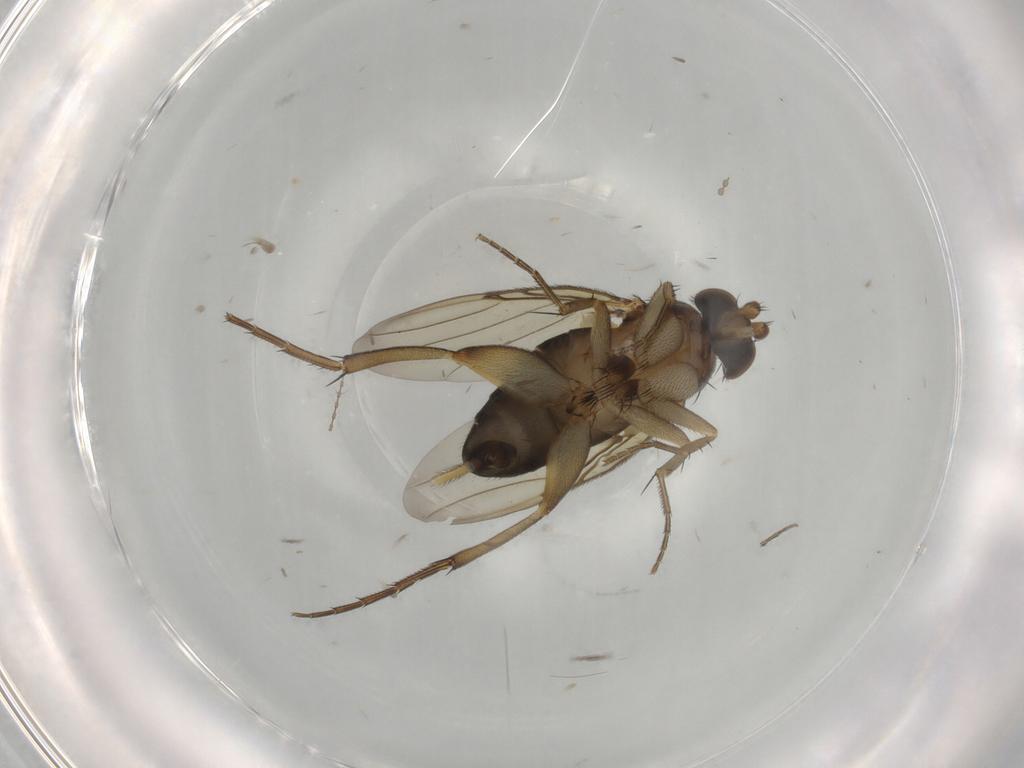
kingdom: Animalia
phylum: Arthropoda
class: Insecta
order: Diptera
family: Phoridae
